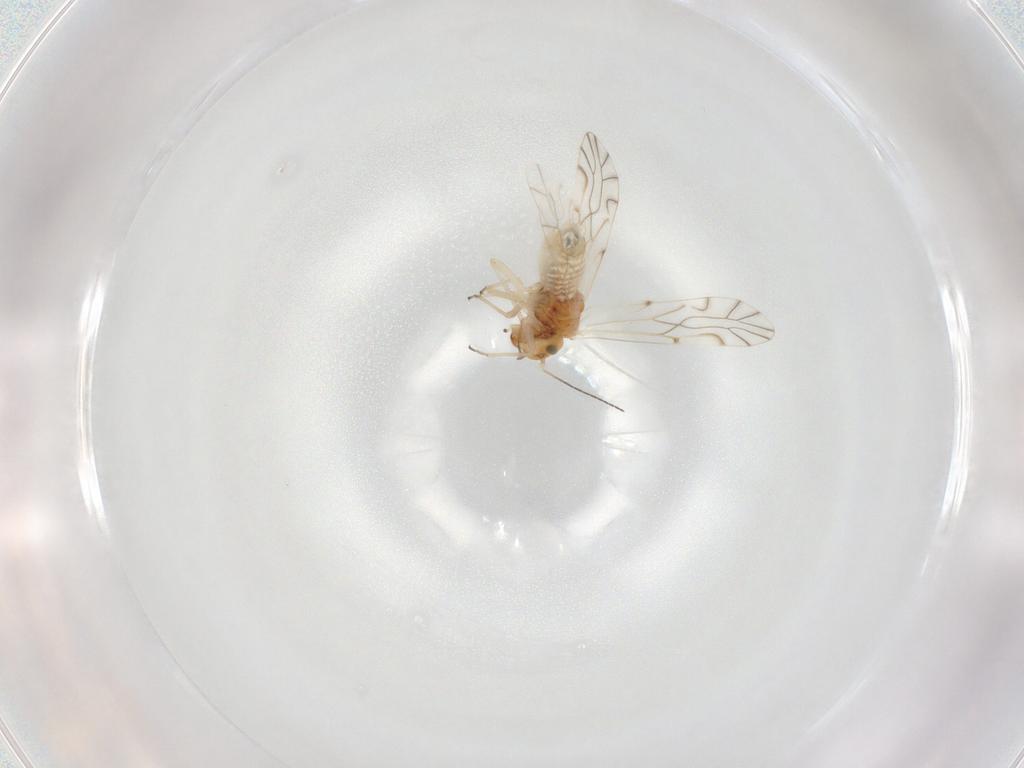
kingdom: Animalia
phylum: Arthropoda
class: Insecta
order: Psocodea
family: Lachesillidae
